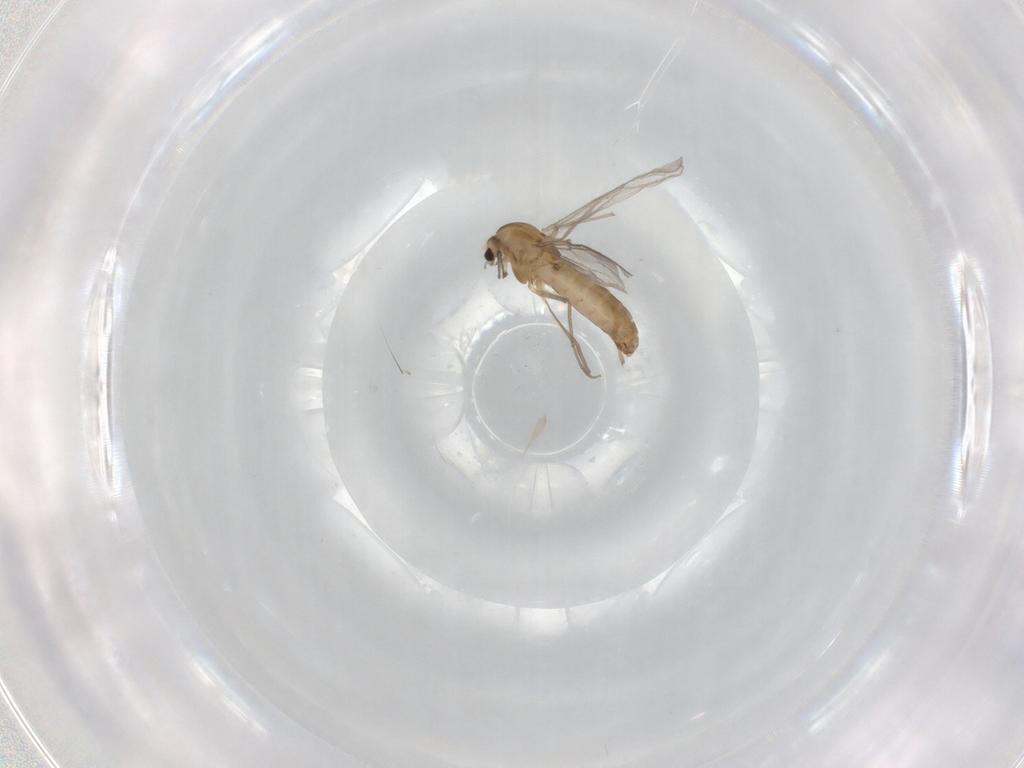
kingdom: Animalia
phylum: Arthropoda
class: Insecta
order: Diptera
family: Chironomidae
